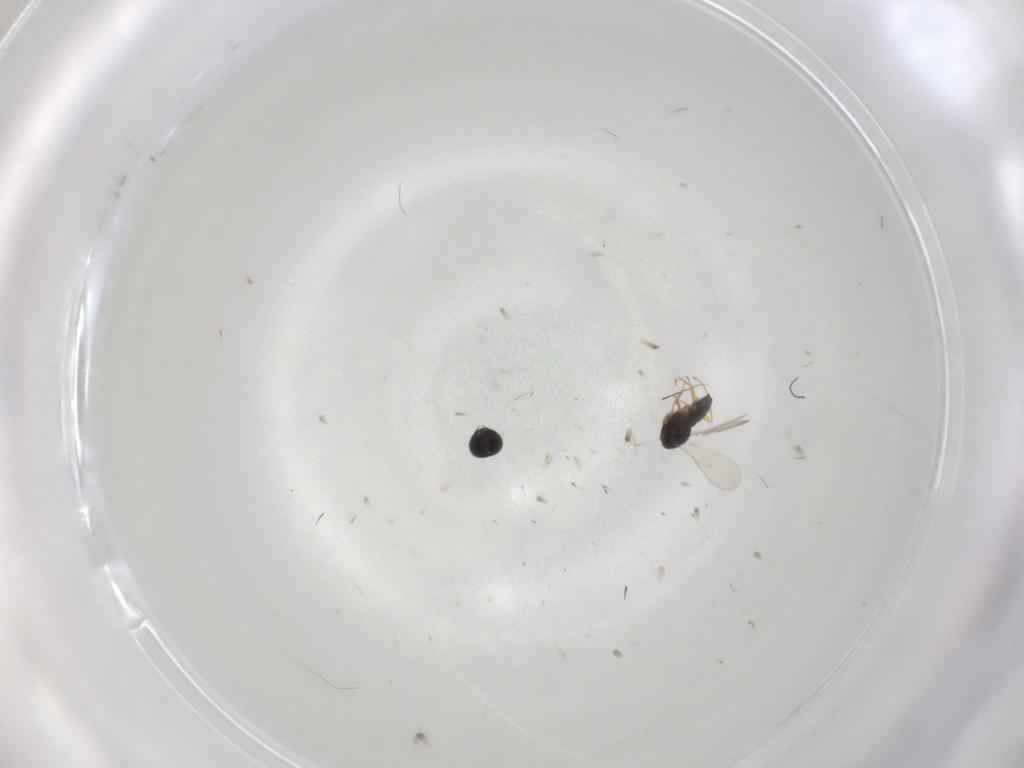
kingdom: Animalia
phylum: Arthropoda
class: Insecta
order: Hymenoptera
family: Scelionidae
